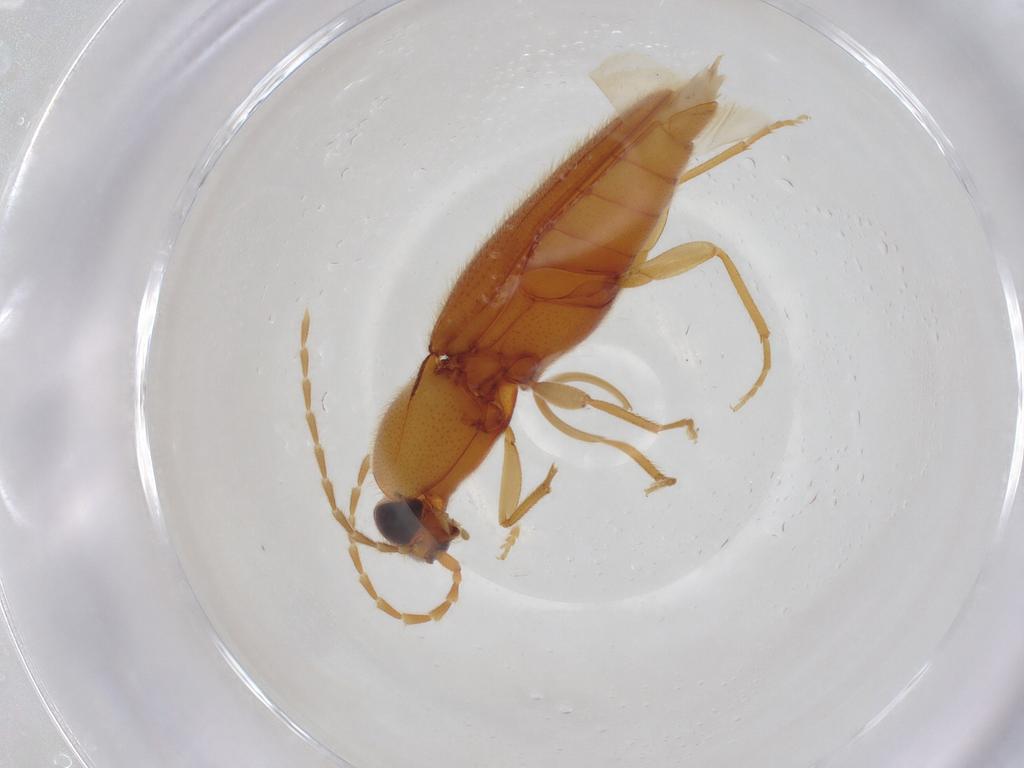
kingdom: Animalia
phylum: Arthropoda
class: Insecta
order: Coleoptera
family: Elateridae
